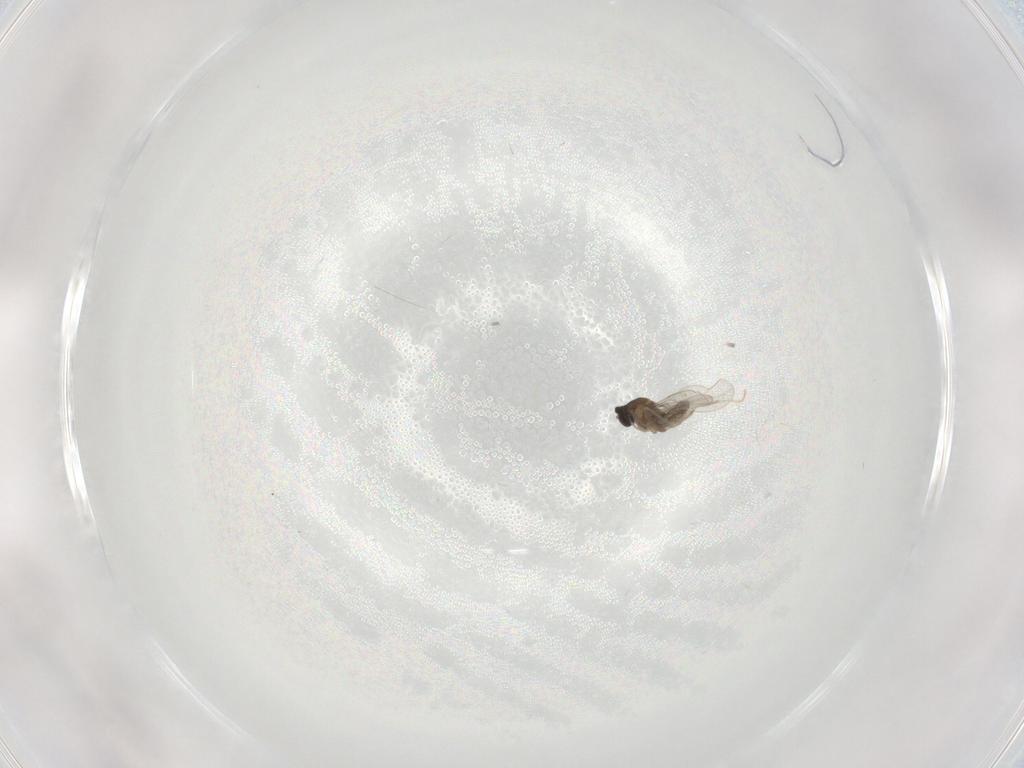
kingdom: Animalia
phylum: Arthropoda
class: Insecta
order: Diptera
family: Cecidomyiidae
